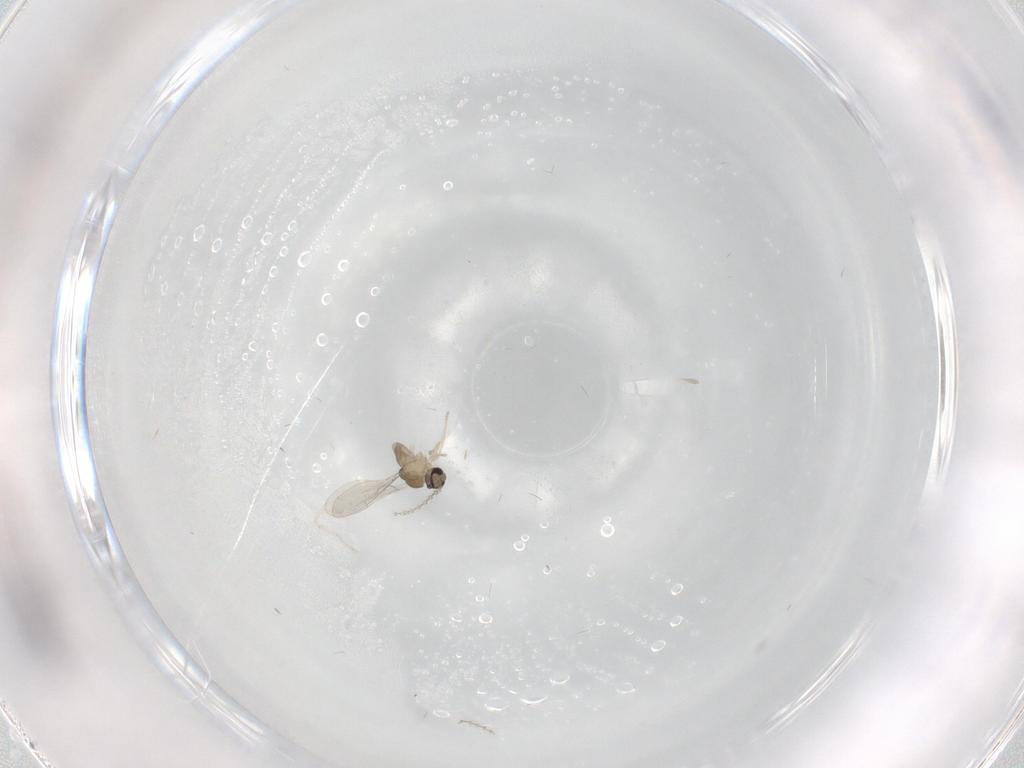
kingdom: Animalia
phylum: Arthropoda
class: Insecta
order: Diptera
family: Cecidomyiidae
